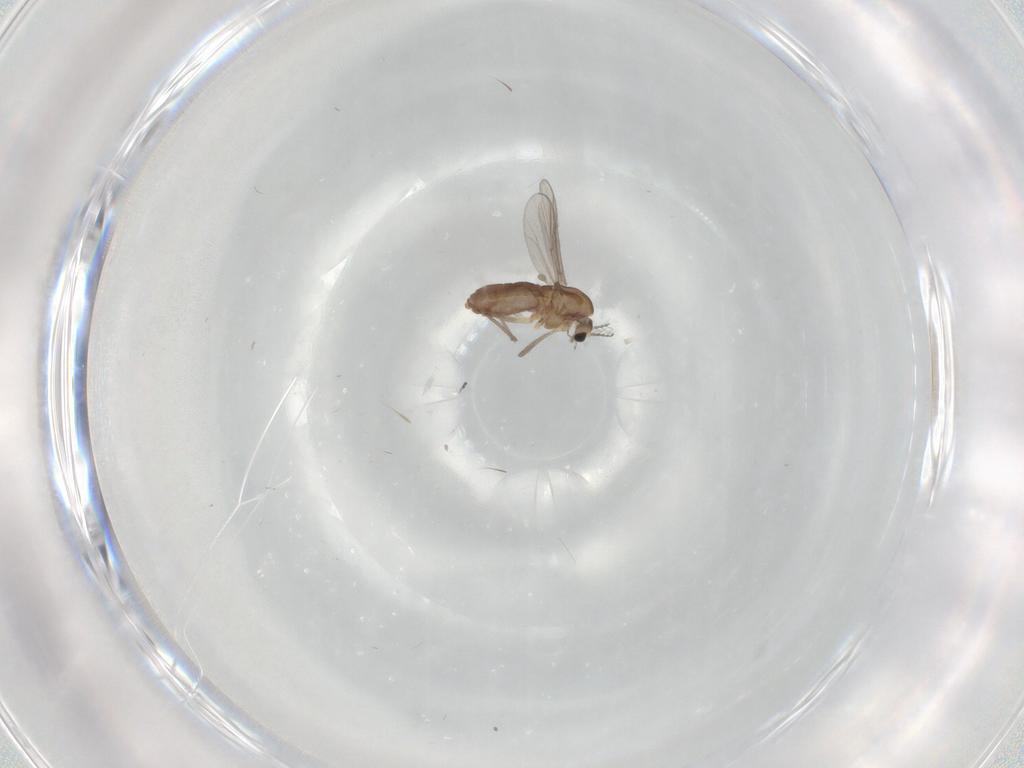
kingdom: Animalia
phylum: Arthropoda
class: Insecta
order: Diptera
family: Chironomidae
